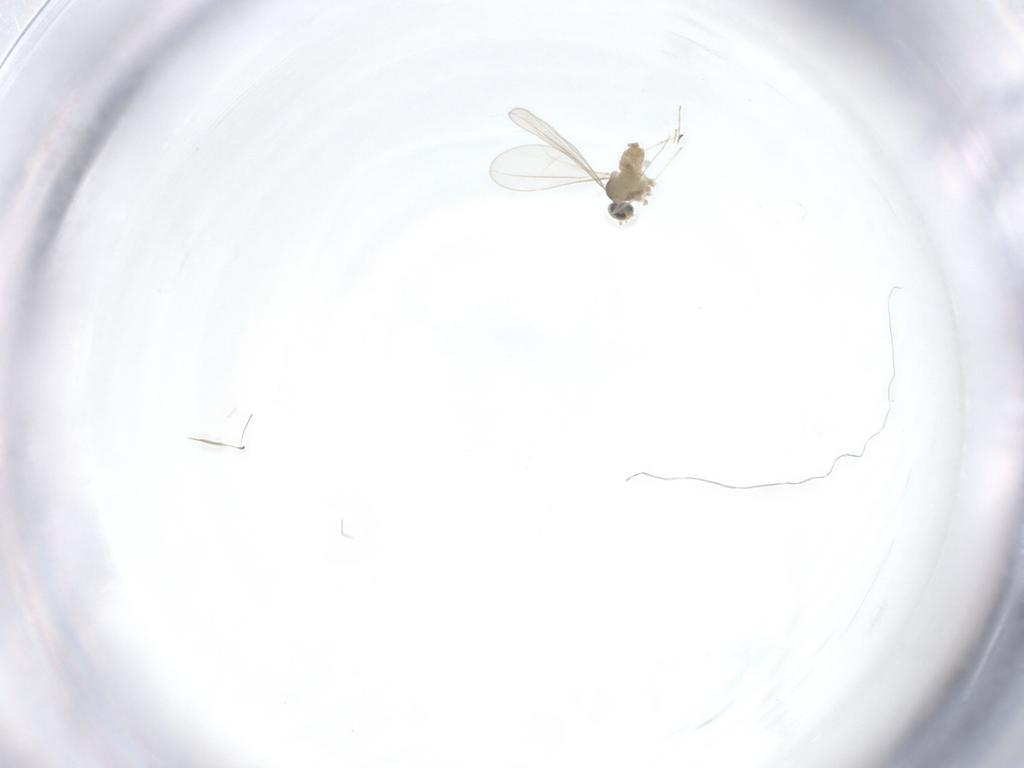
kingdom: Animalia
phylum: Arthropoda
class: Insecta
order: Diptera
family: Cecidomyiidae
